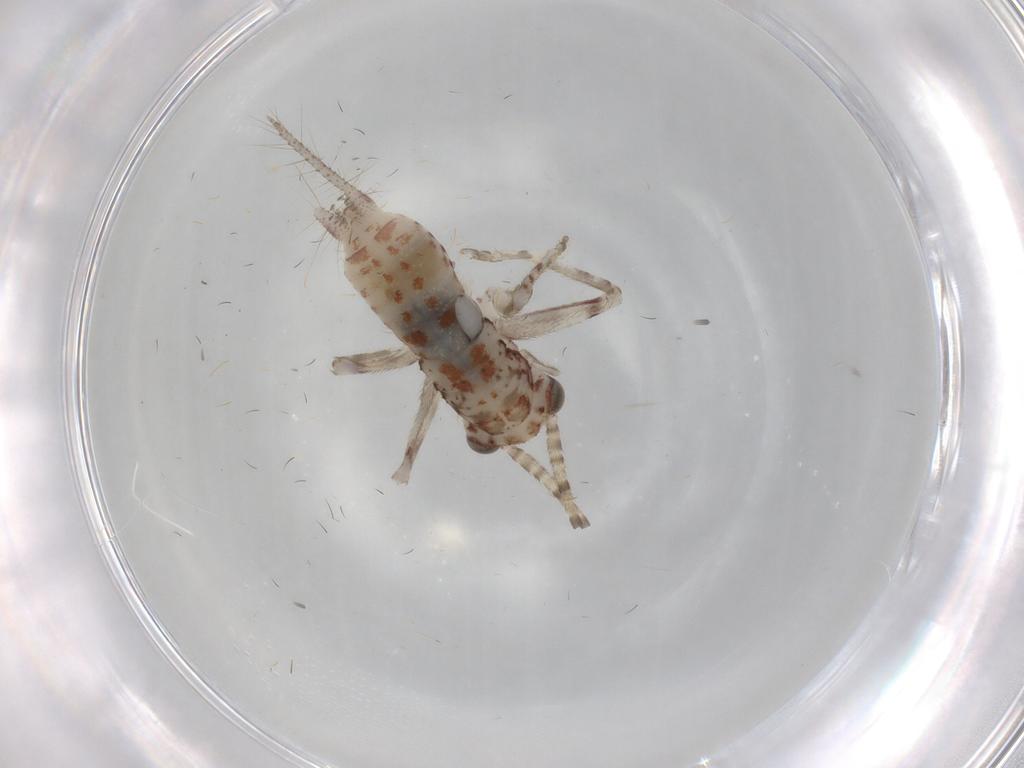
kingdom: Animalia
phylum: Arthropoda
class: Insecta
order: Orthoptera
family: Trigonidiidae
